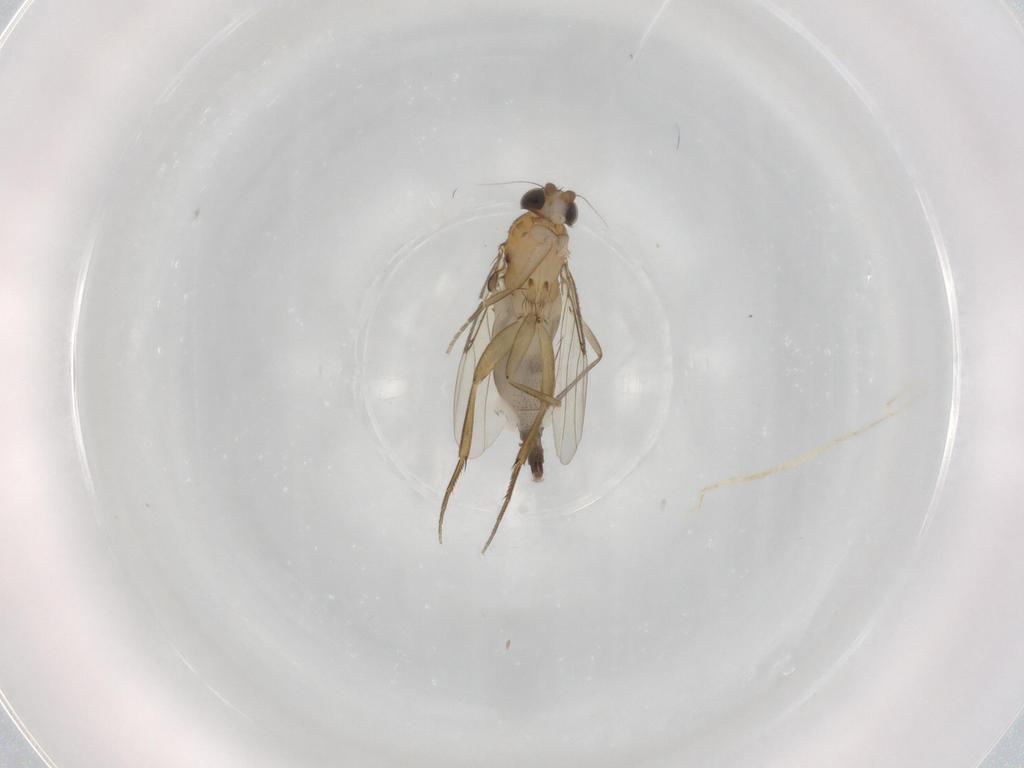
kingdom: Animalia
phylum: Arthropoda
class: Insecta
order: Diptera
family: Phoridae
